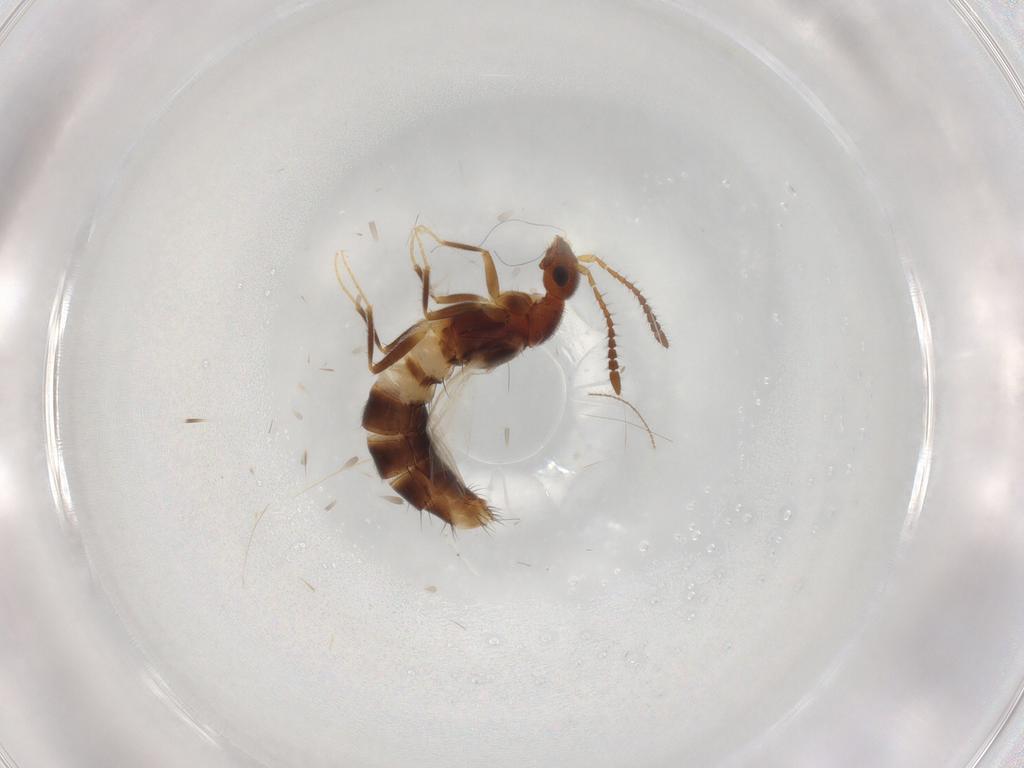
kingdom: Animalia
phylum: Arthropoda
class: Insecta
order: Coleoptera
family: Staphylinidae
